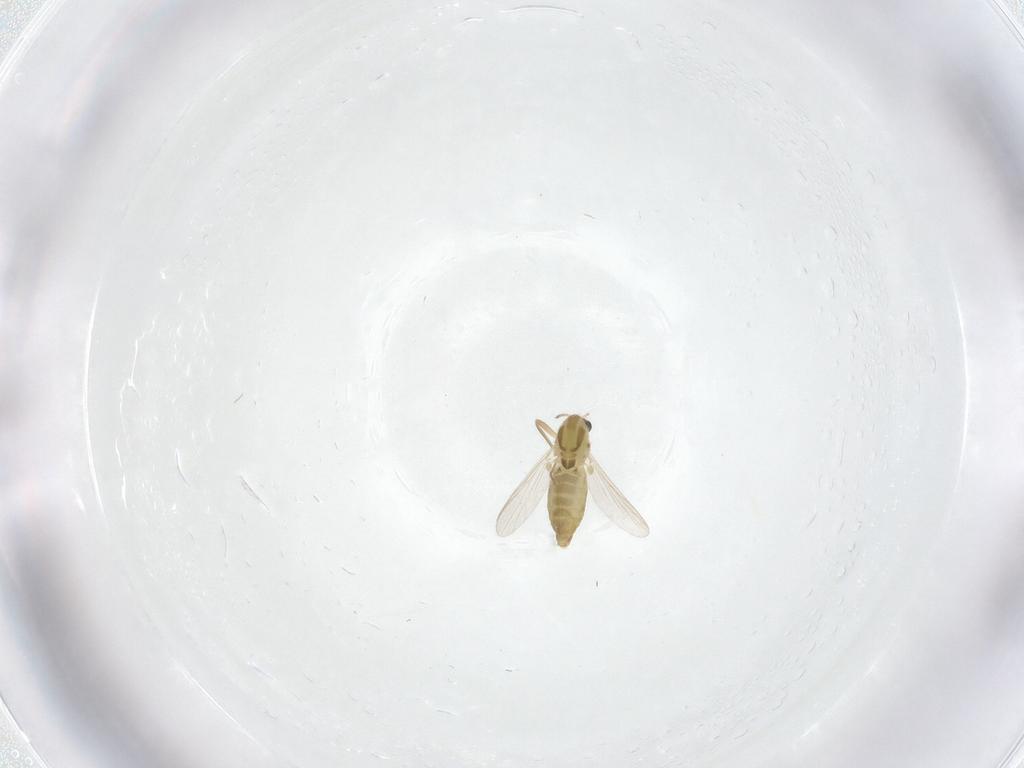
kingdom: Animalia
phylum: Arthropoda
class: Insecta
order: Diptera
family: Chironomidae
